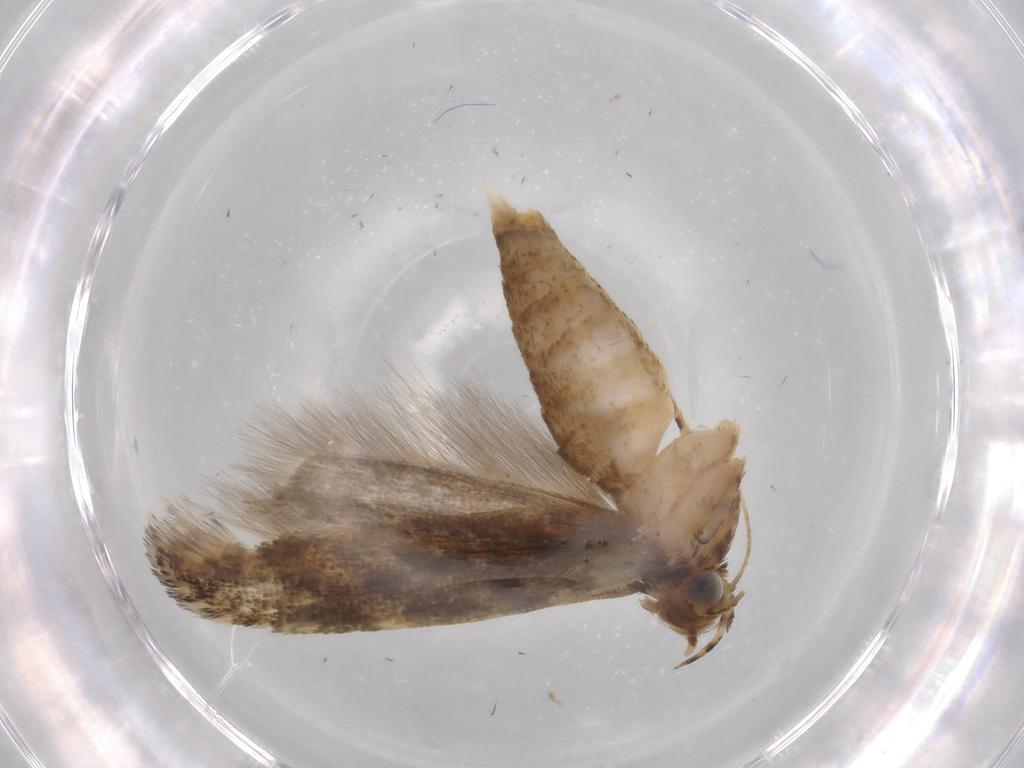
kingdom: Animalia
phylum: Arthropoda
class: Insecta
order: Lepidoptera
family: Gelechiidae
